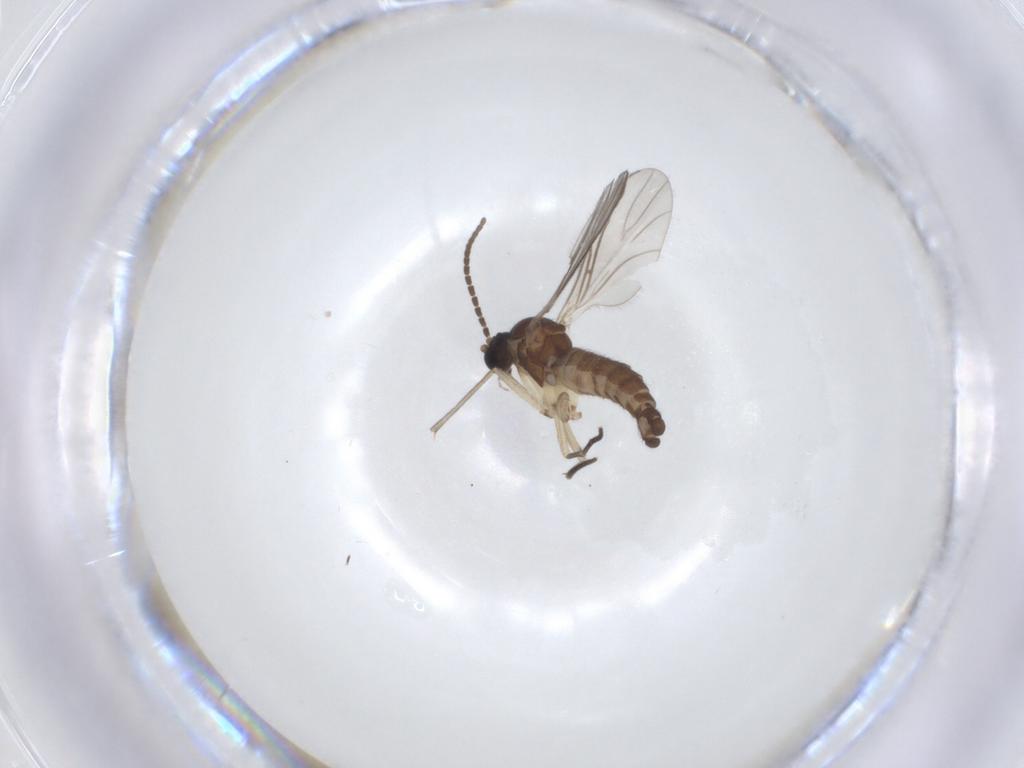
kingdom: Animalia
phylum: Arthropoda
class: Insecta
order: Diptera
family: Sciaridae
